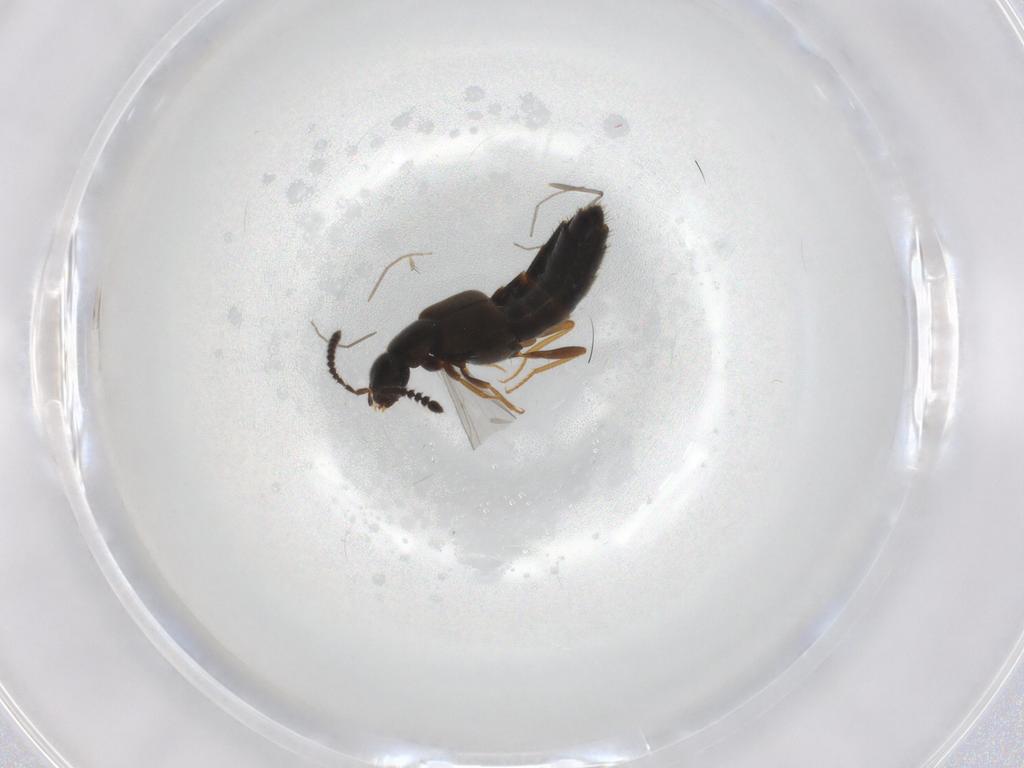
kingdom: Animalia
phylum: Arthropoda
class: Insecta
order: Coleoptera
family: Staphylinidae
